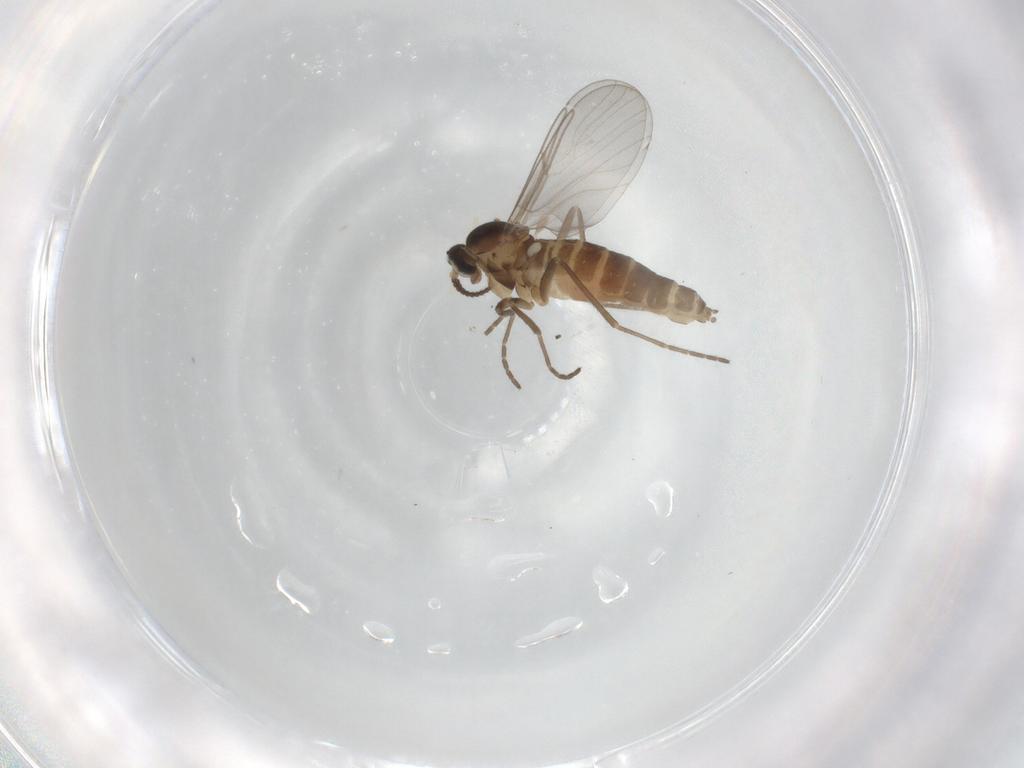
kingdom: Animalia
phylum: Arthropoda
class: Insecta
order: Diptera
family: Cecidomyiidae
